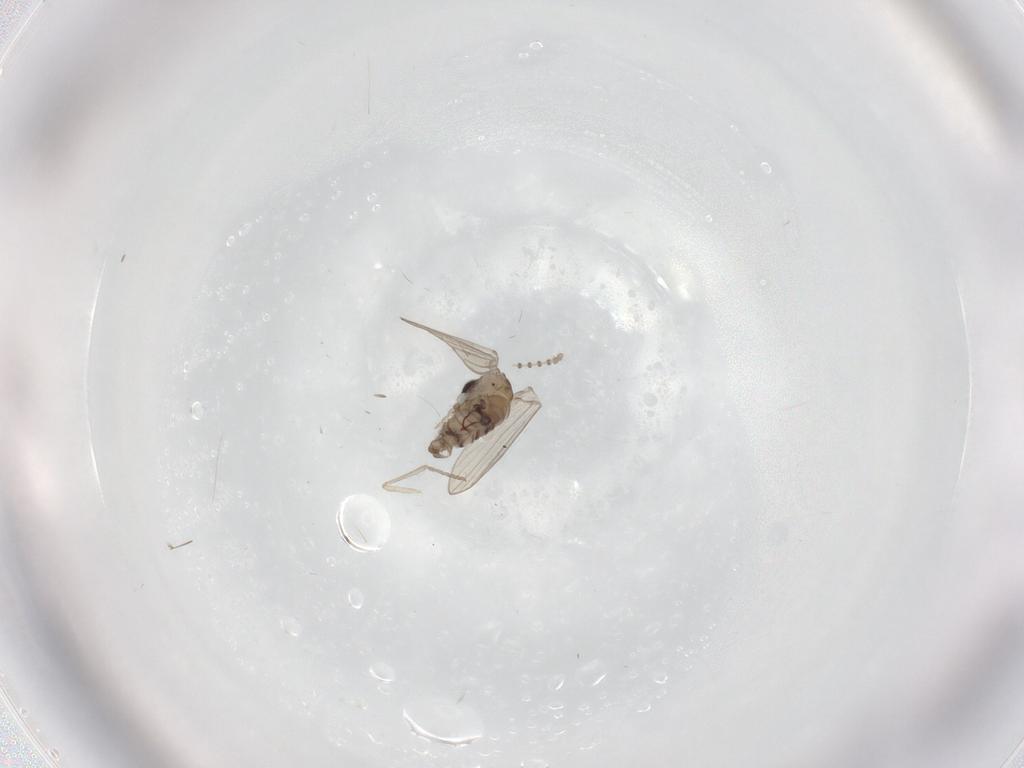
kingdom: Animalia
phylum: Arthropoda
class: Insecta
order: Diptera
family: Psychodidae
